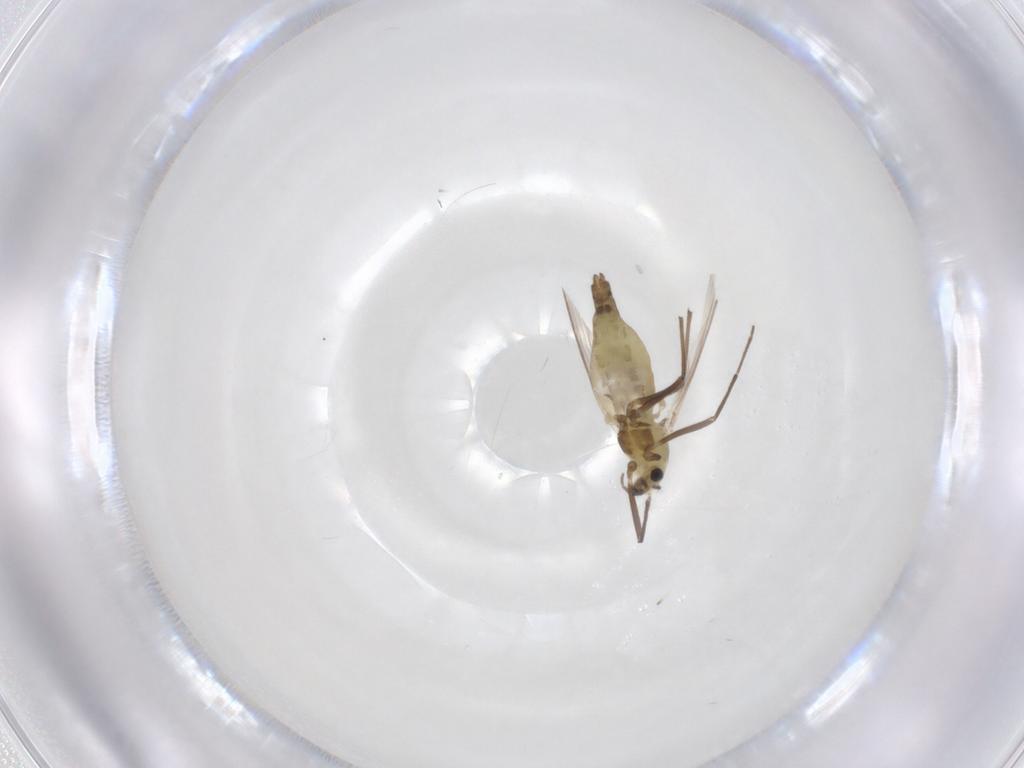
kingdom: Animalia
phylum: Arthropoda
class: Insecta
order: Diptera
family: Chironomidae
